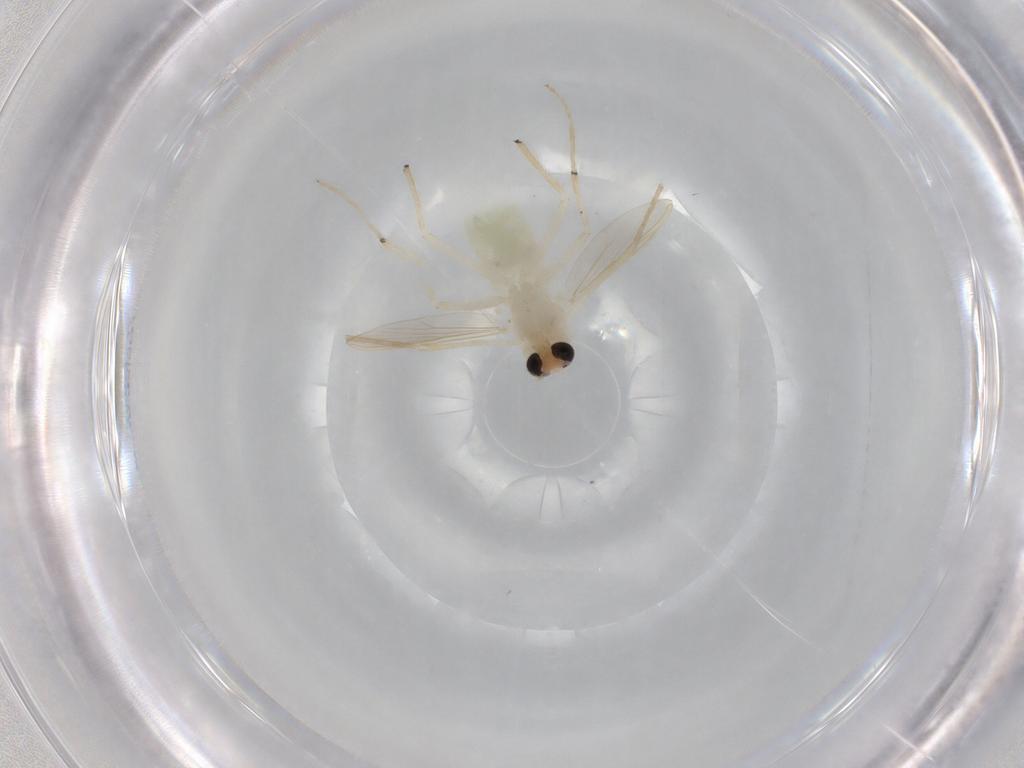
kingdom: Animalia
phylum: Arthropoda
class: Insecta
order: Diptera
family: Chironomidae
